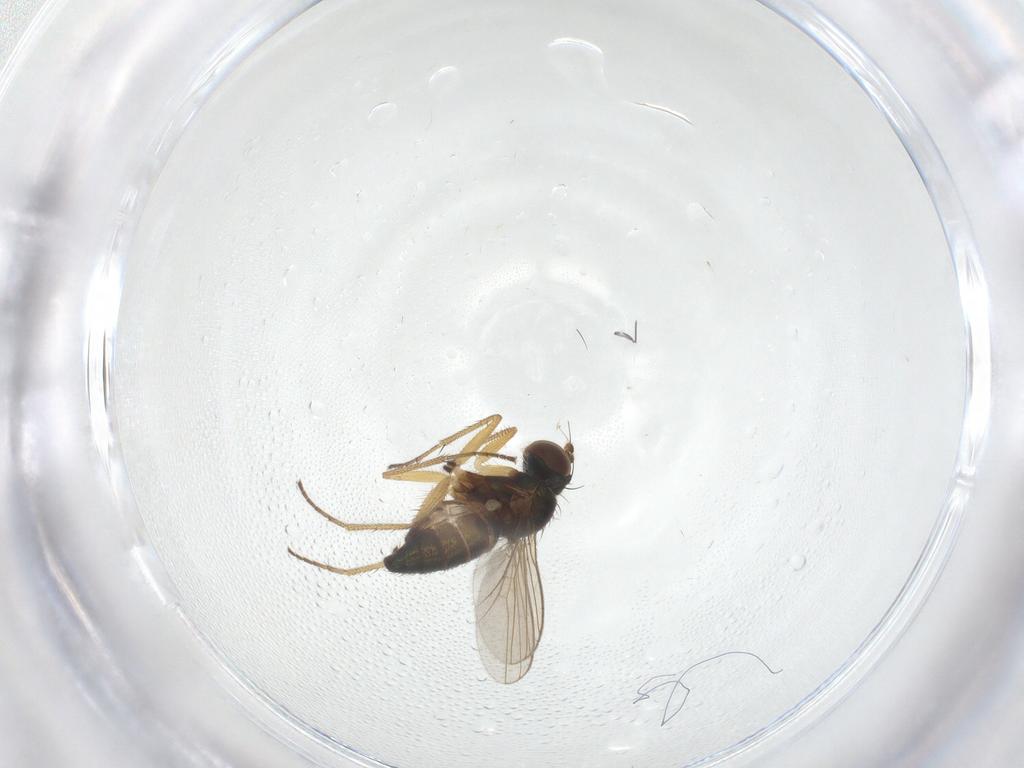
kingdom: Animalia
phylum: Arthropoda
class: Insecta
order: Diptera
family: Dolichopodidae
